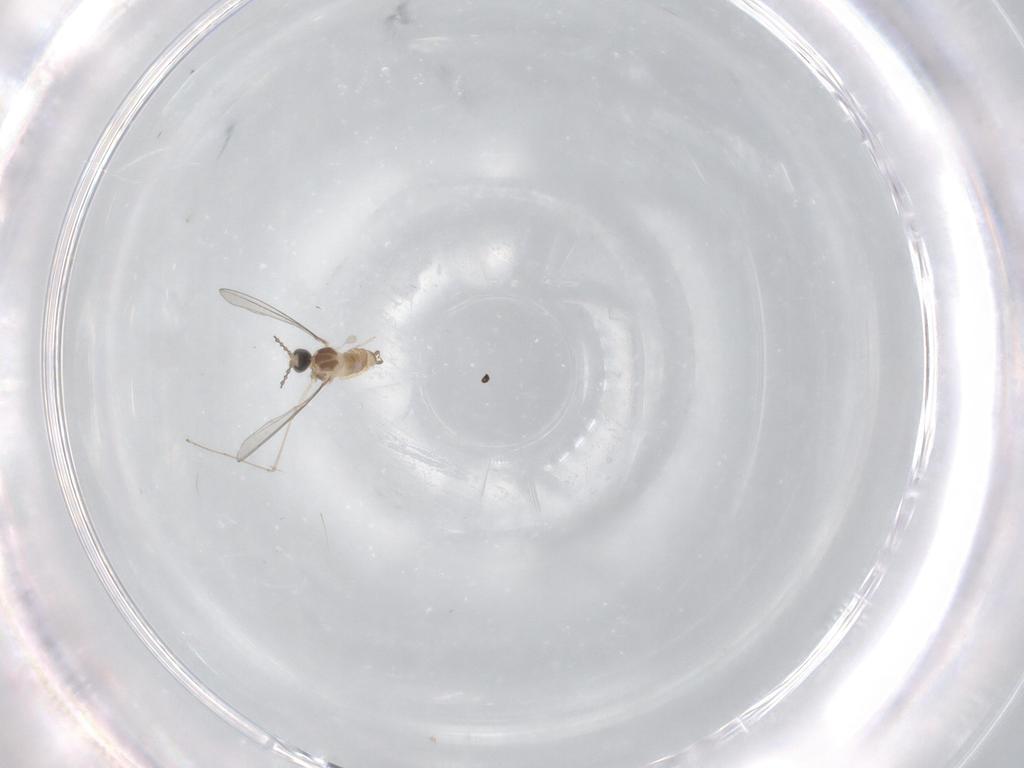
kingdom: Animalia
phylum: Arthropoda
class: Insecta
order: Diptera
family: Cecidomyiidae
